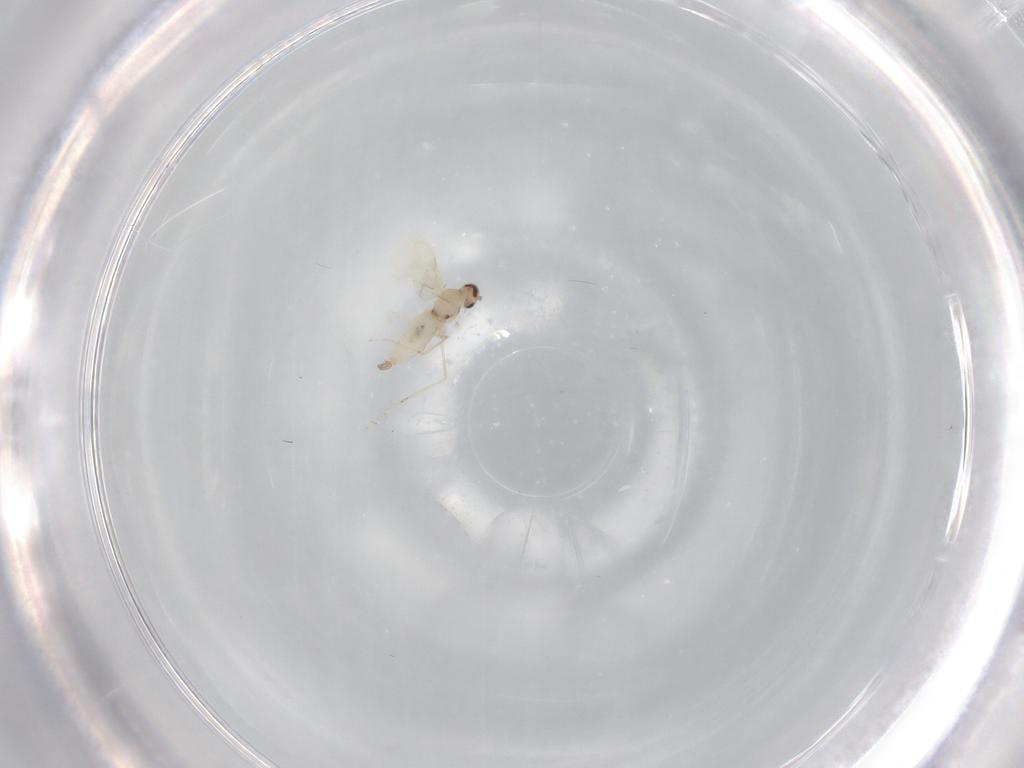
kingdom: Animalia
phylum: Arthropoda
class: Insecta
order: Diptera
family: Cecidomyiidae
